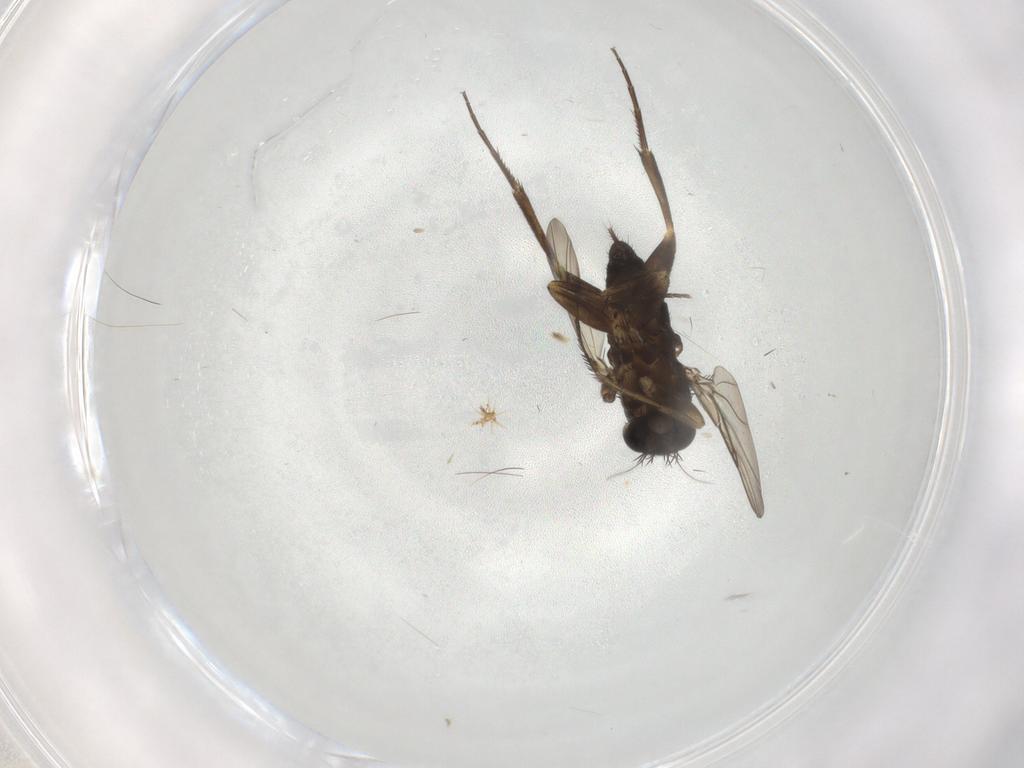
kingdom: Animalia
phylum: Arthropoda
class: Insecta
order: Diptera
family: Phoridae
